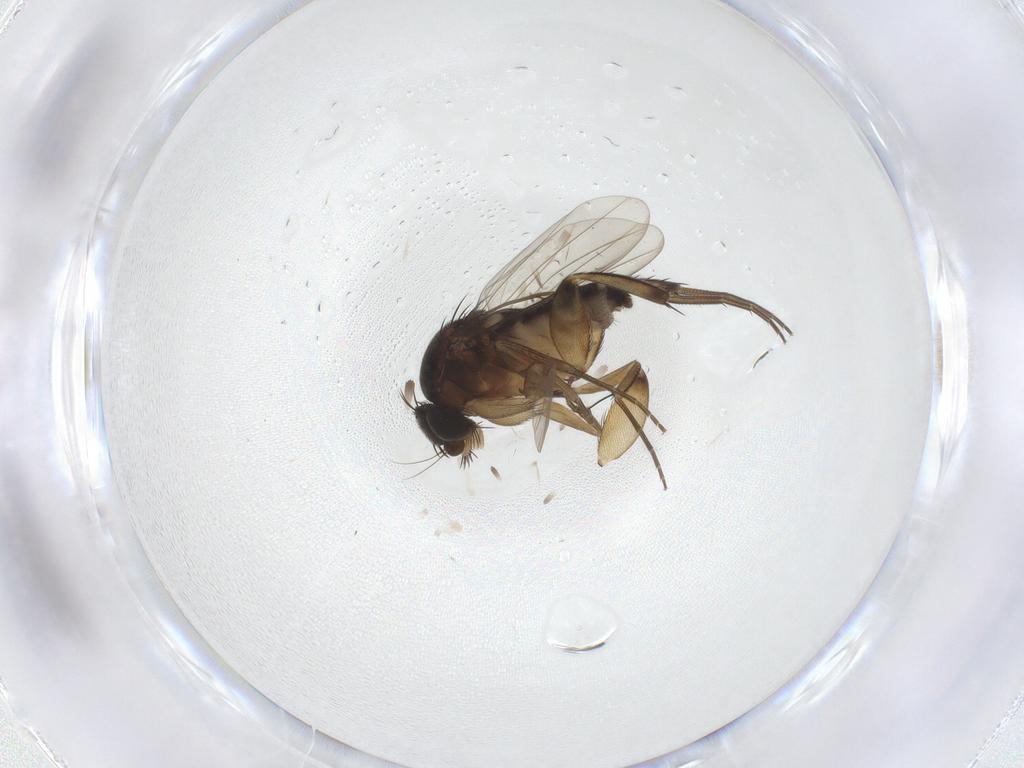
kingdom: Animalia
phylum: Arthropoda
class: Insecta
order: Diptera
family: Phoridae
